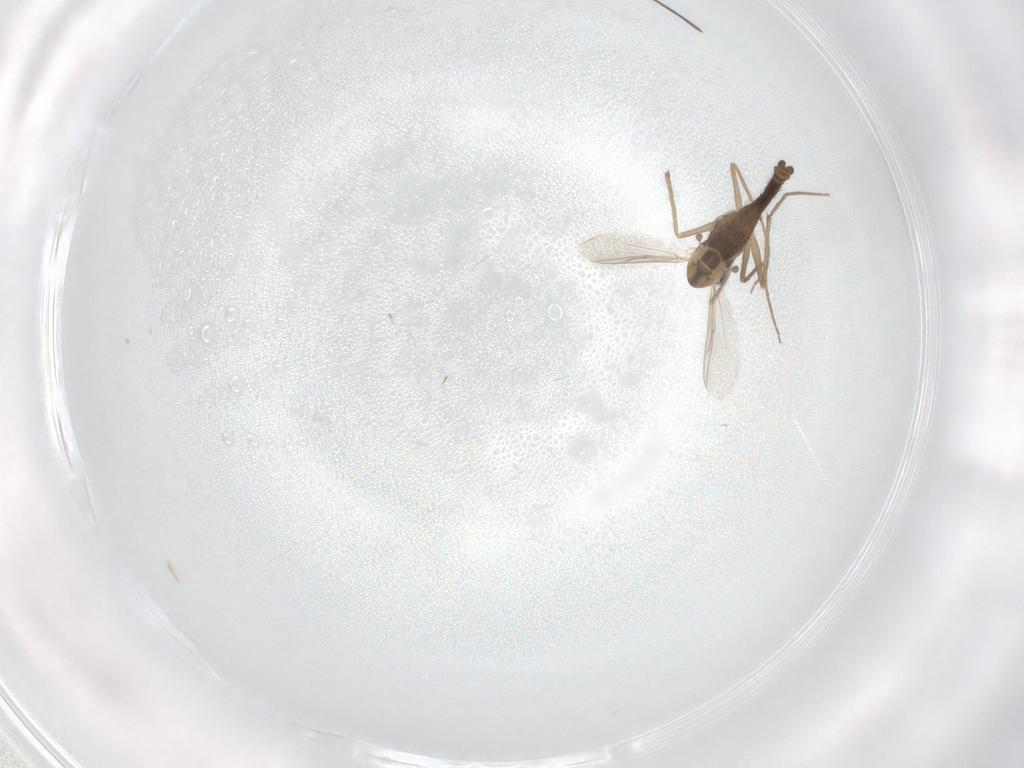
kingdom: Animalia
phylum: Arthropoda
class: Insecta
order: Diptera
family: Chironomidae
